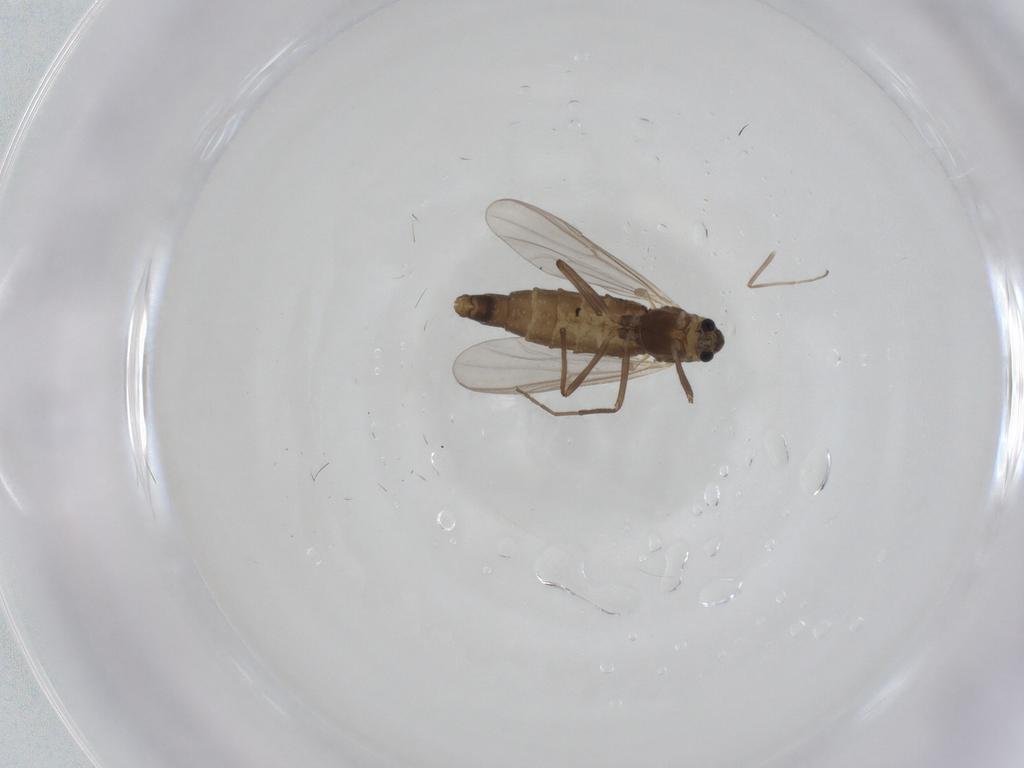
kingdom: Animalia
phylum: Arthropoda
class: Insecta
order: Diptera
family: Chironomidae
